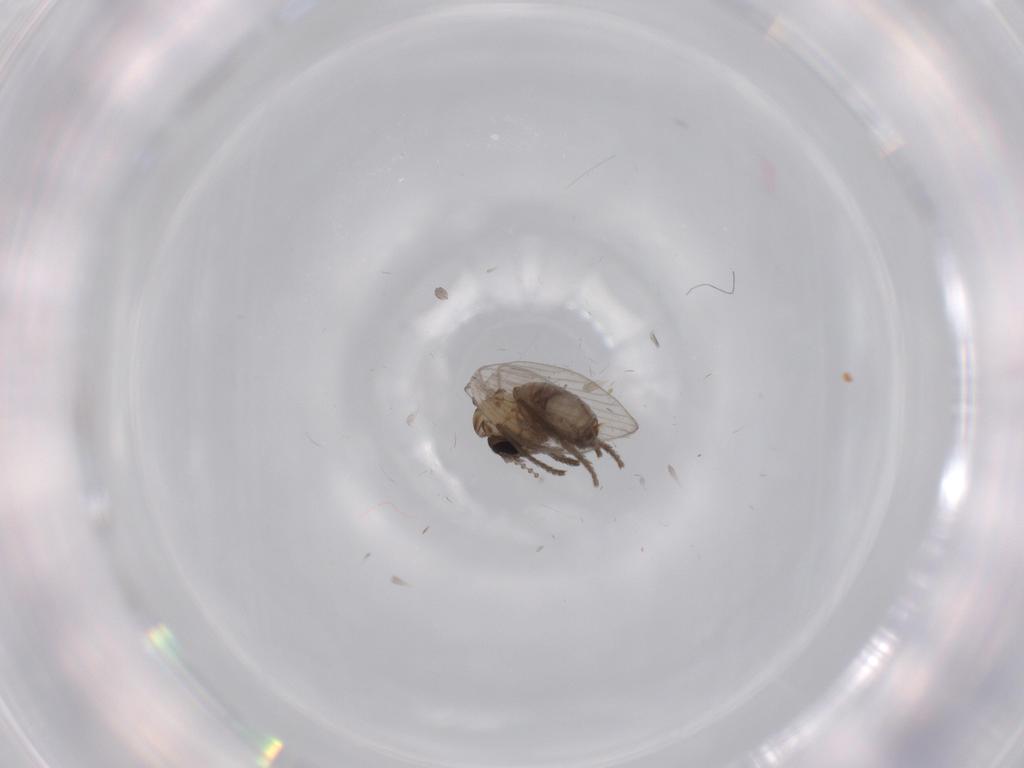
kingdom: Animalia
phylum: Arthropoda
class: Insecta
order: Diptera
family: Psychodidae
